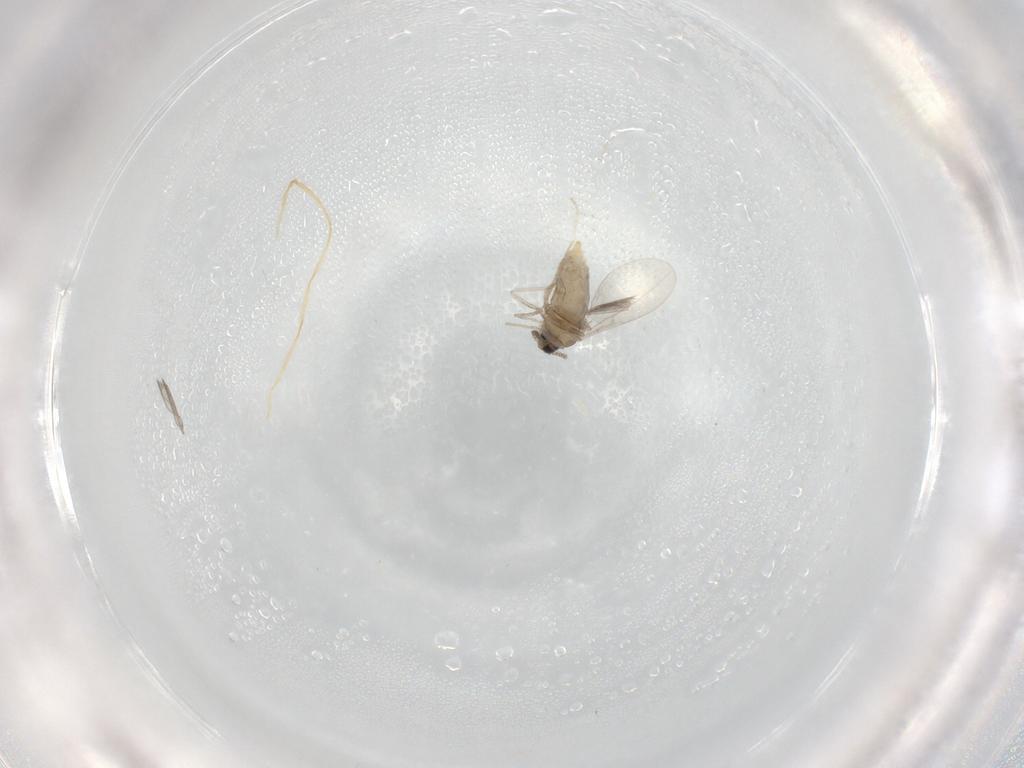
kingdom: Animalia
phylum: Arthropoda
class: Insecta
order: Diptera
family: Cecidomyiidae
